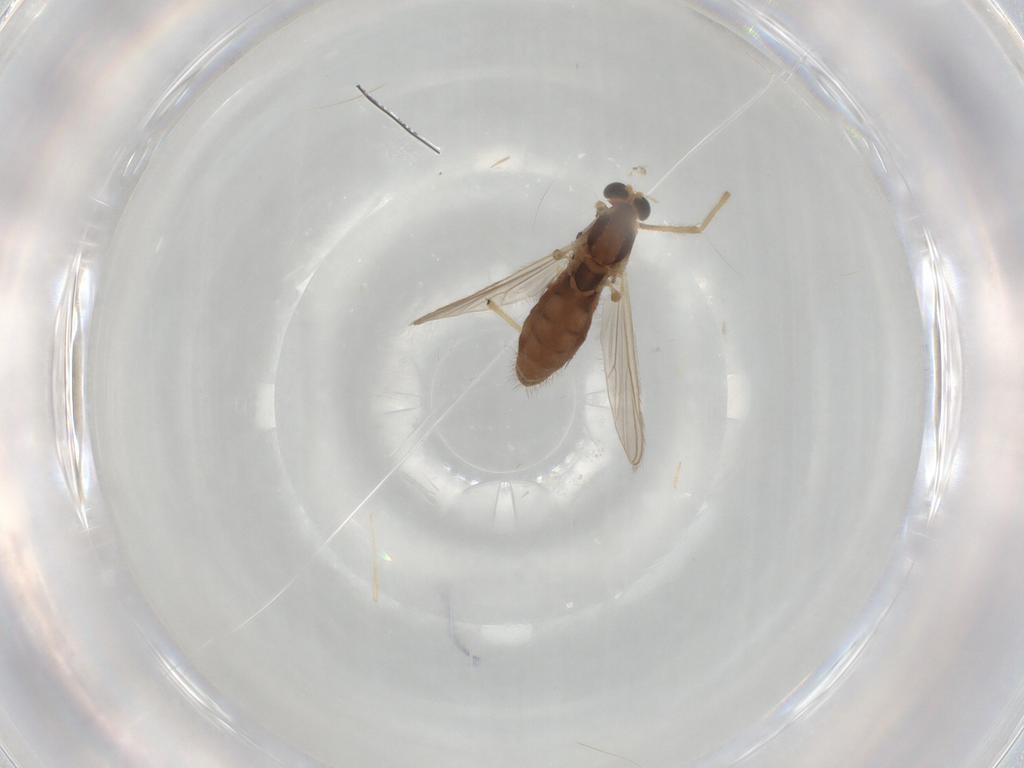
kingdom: Animalia
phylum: Arthropoda
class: Insecta
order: Diptera
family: Chironomidae
